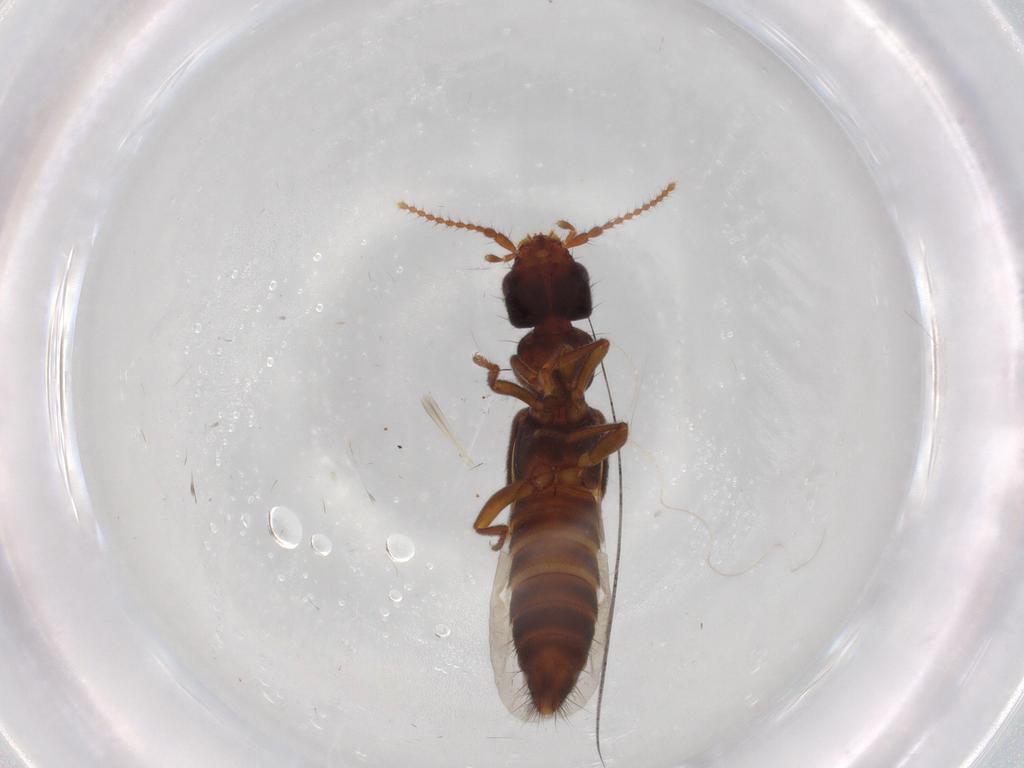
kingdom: Animalia
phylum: Arthropoda
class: Insecta
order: Coleoptera
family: Staphylinidae
